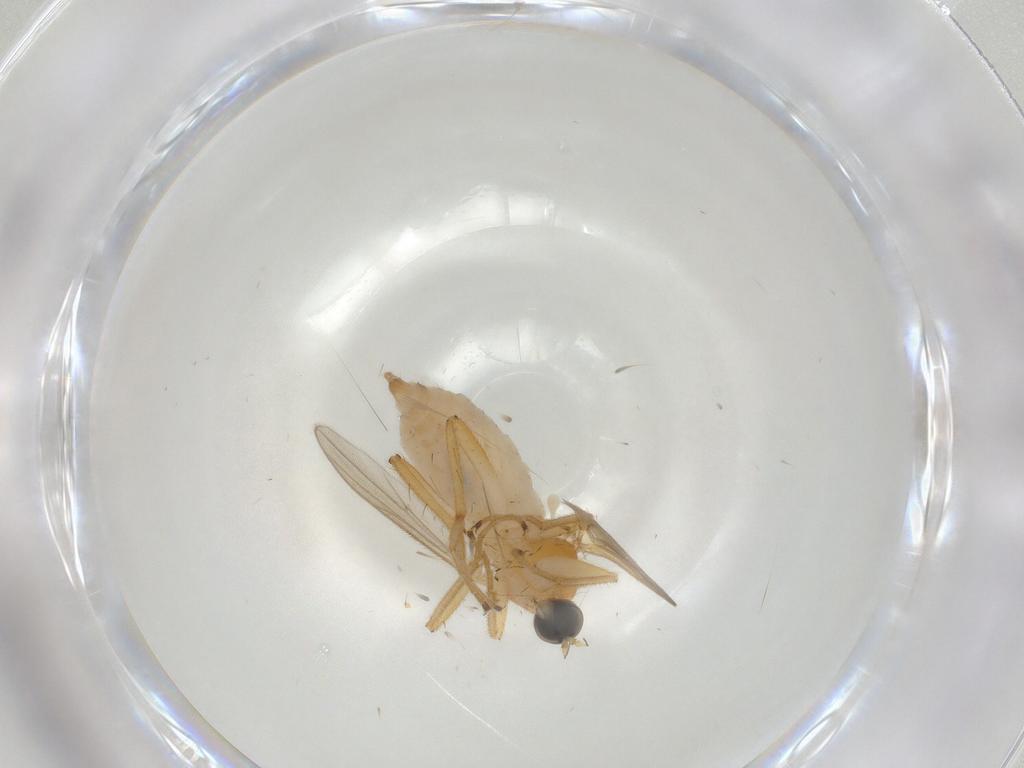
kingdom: Animalia
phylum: Arthropoda
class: Insecta
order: Diptera
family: Hybotidae
